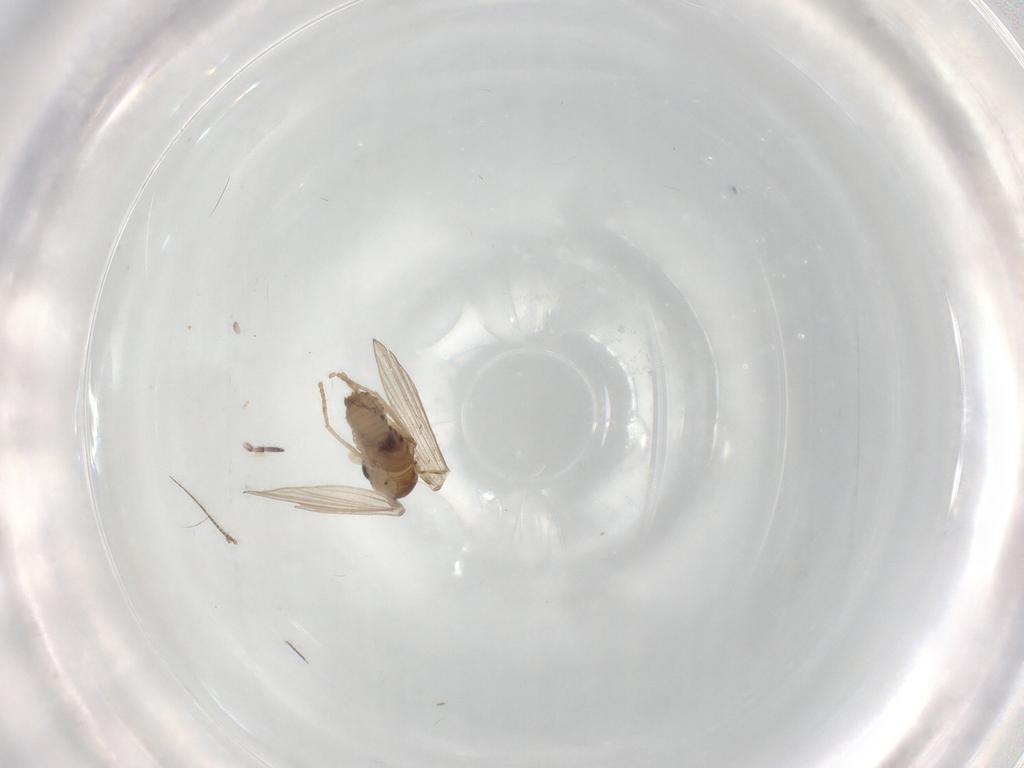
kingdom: Animalia
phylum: Arthropoda
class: Insecta
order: Diptera
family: Psychodidae
